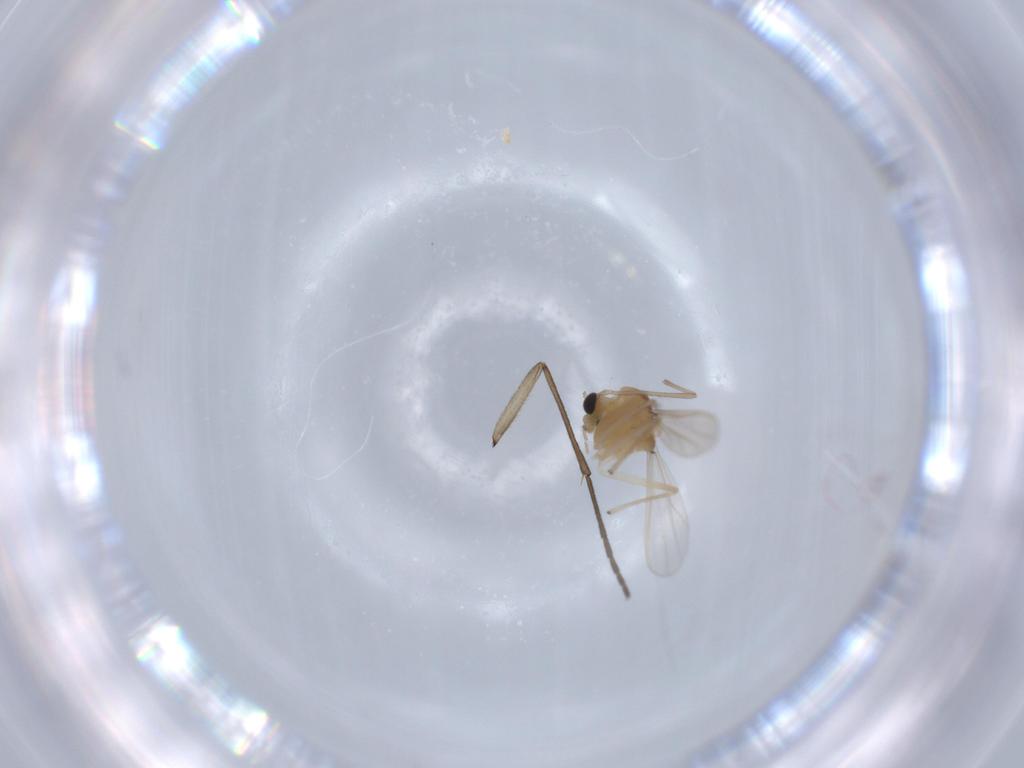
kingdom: Animalia
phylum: Arthropoda
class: Insecta
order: Diptera
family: Chironomidae
